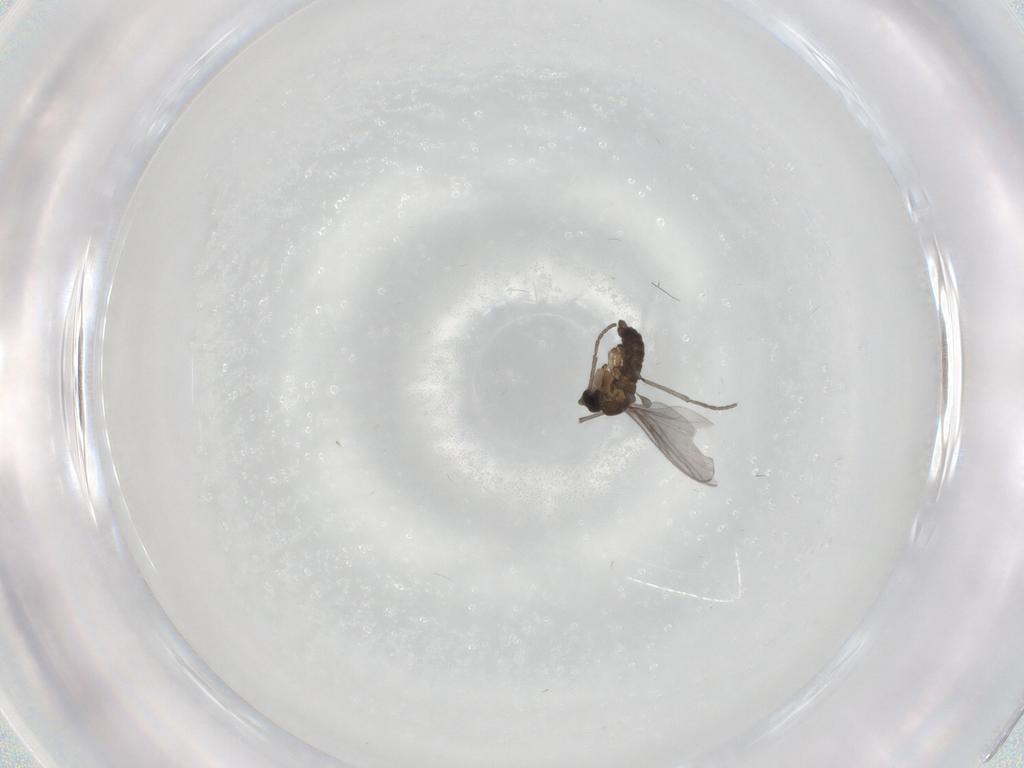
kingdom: Animalia
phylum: Arthropoda
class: Insecta
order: Diptera
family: Sciaridae
